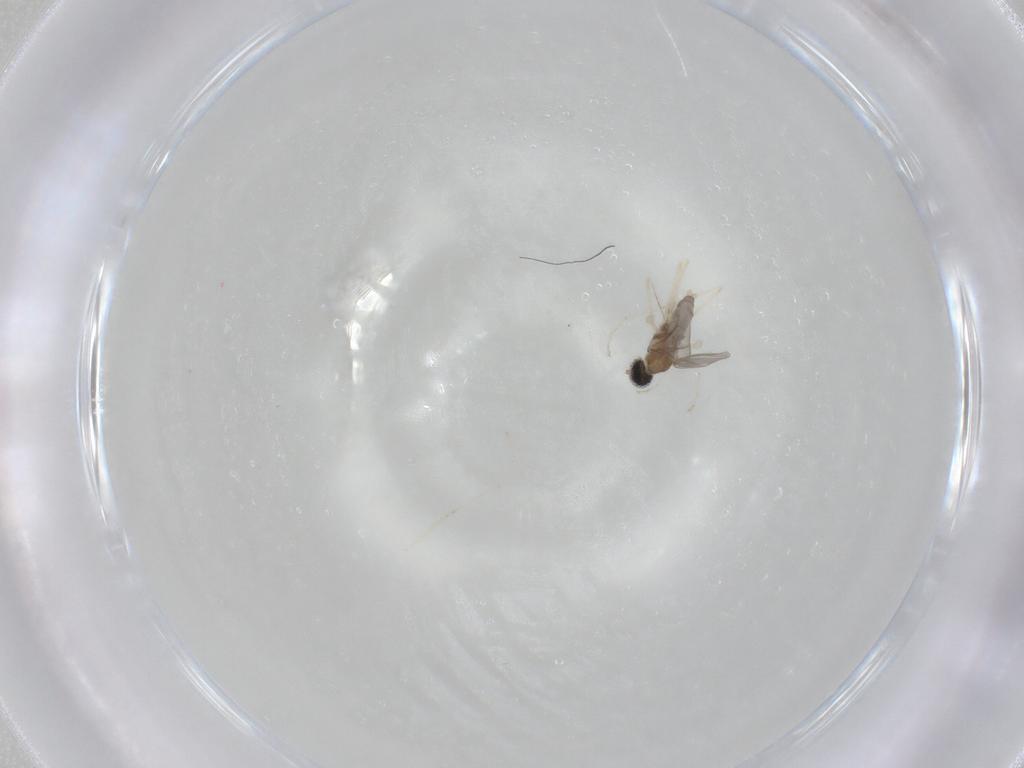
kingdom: Animalia
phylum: Arthropoda
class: Insecta
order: Diptera
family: Cecidomyiidae
